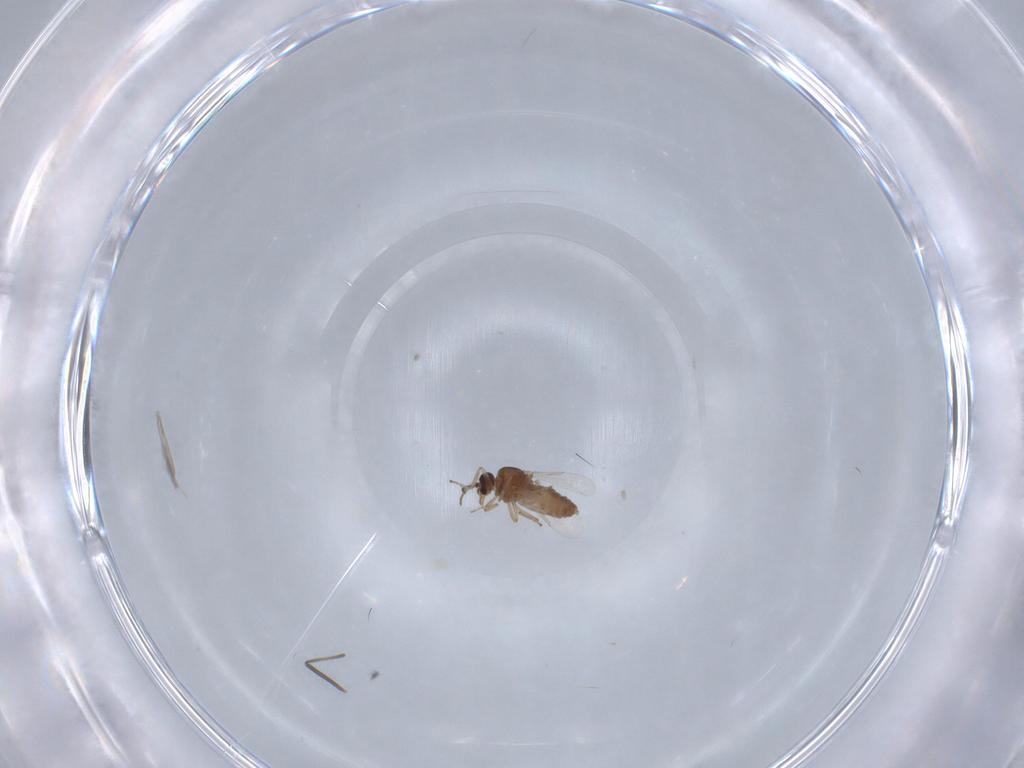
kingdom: Animalia
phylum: Arthropoda
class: Insecta
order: Diptera
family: Ceratopogonidae
